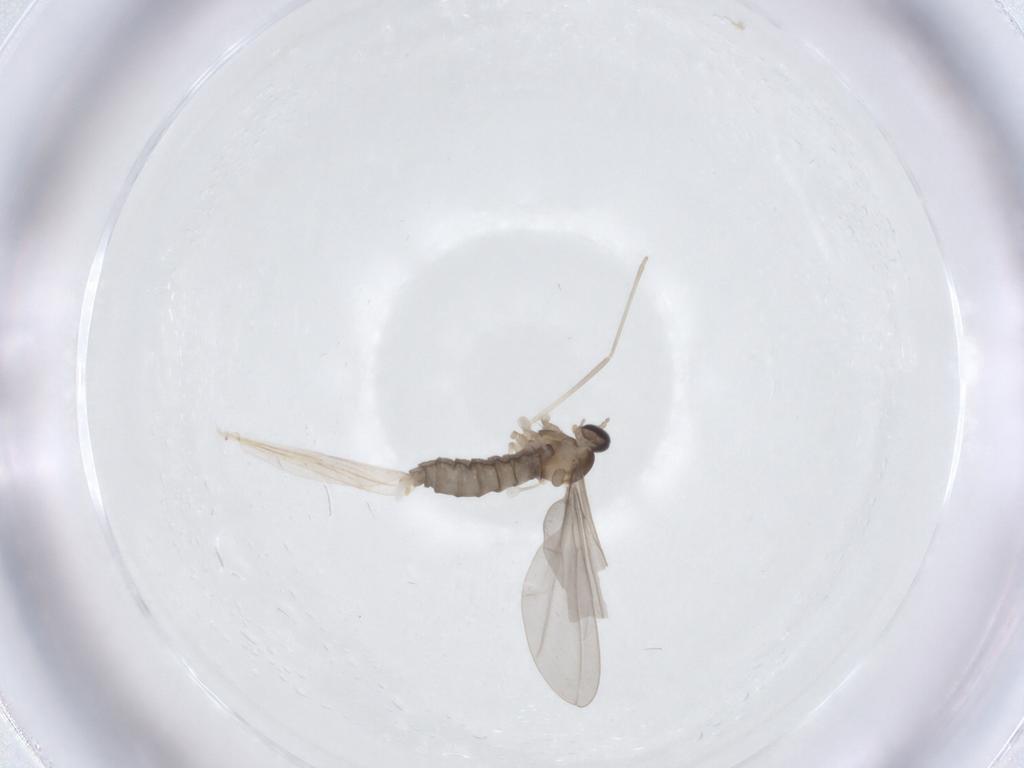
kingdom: Animalia
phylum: Arthropoda
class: Insecta
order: Diptera
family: Cecidomyiidae
